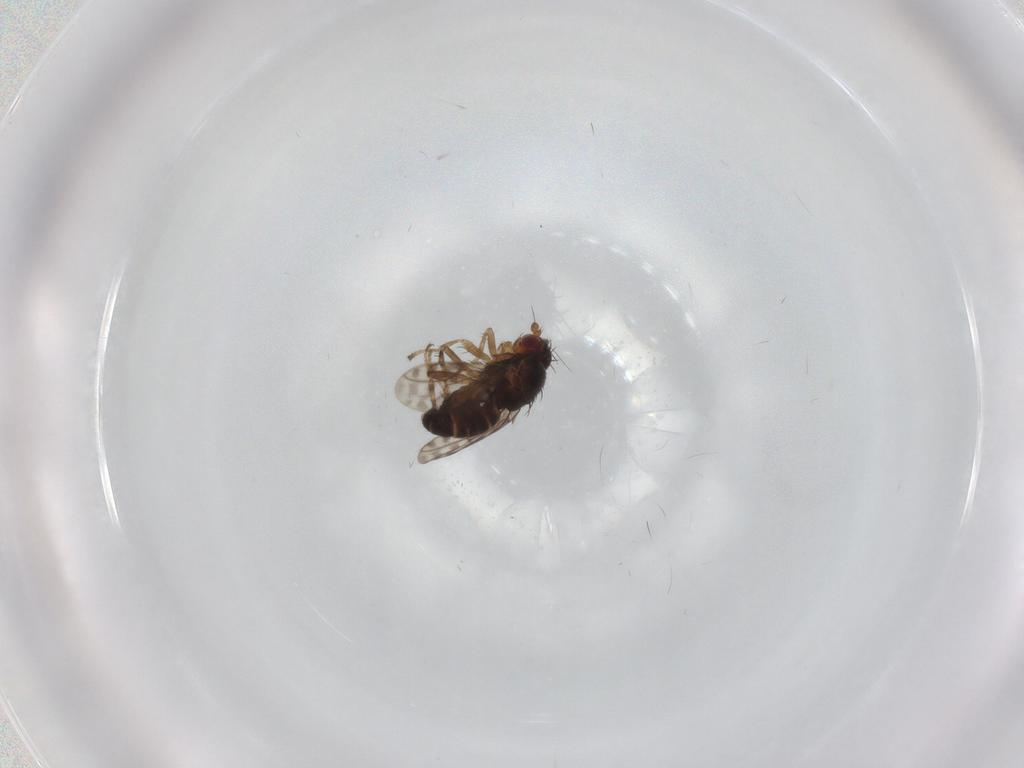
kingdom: Animalia
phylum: Arthropoda
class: Insecta
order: Diptera
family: Sphaeroceridae
